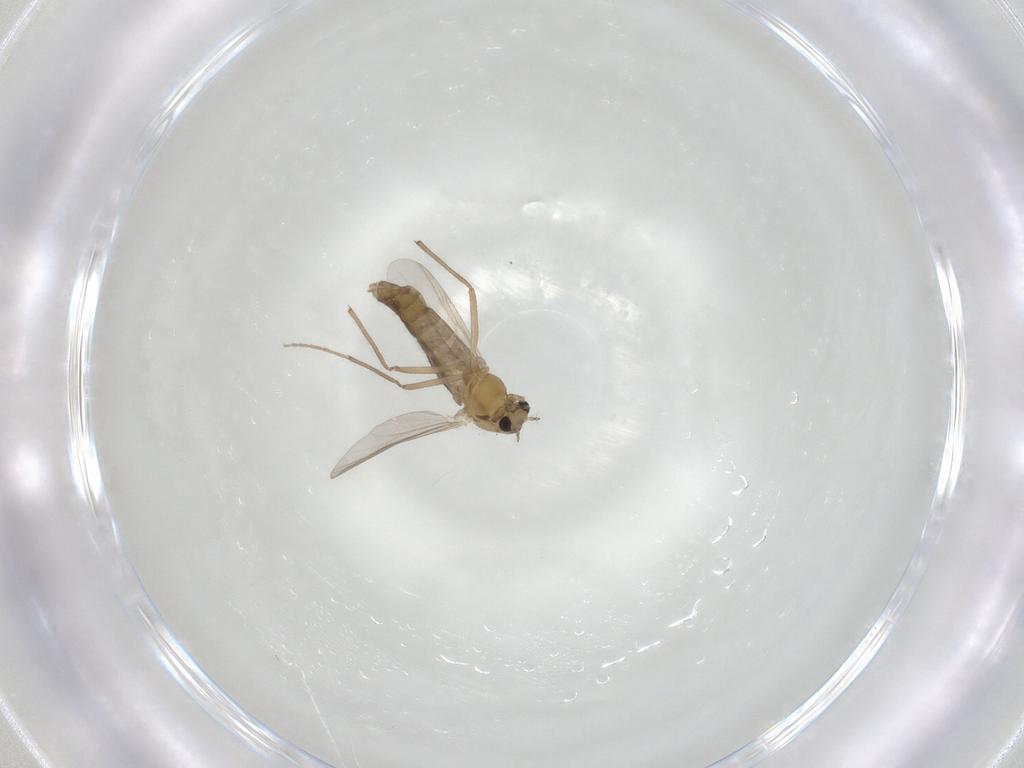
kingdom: Animalia
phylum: Arthropoda
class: Insecta
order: Diptera
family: Chironomidae
